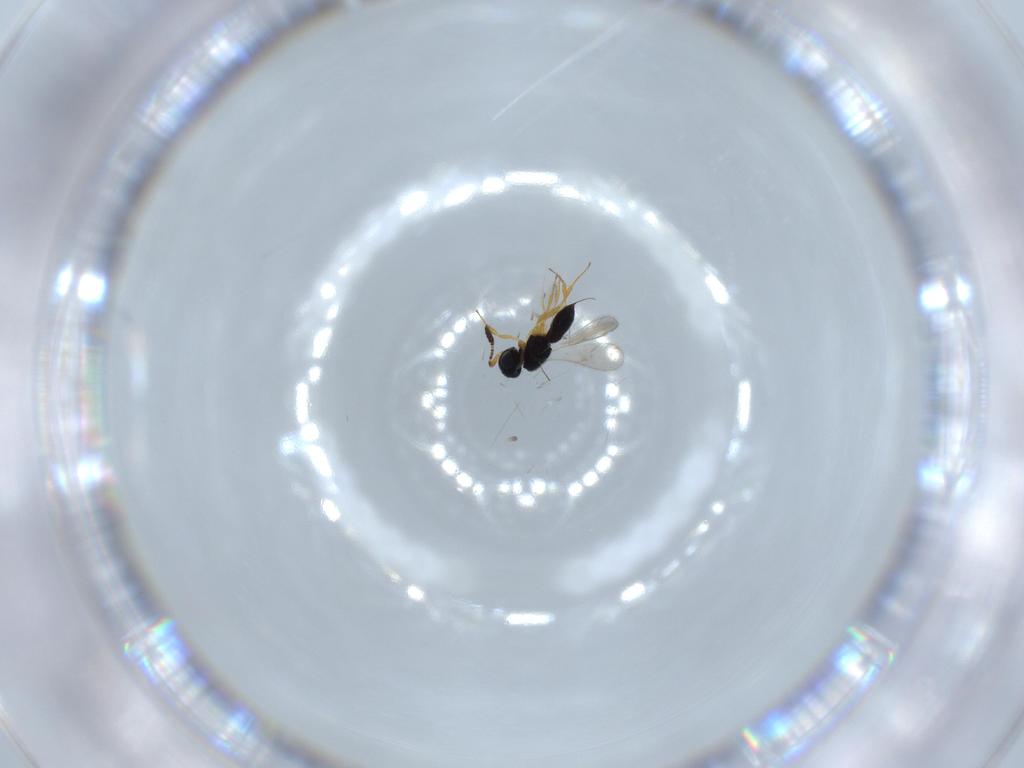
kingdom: Animalia
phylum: Arthropoda
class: Insecta
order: Hymenoptera
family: Scelionidae
